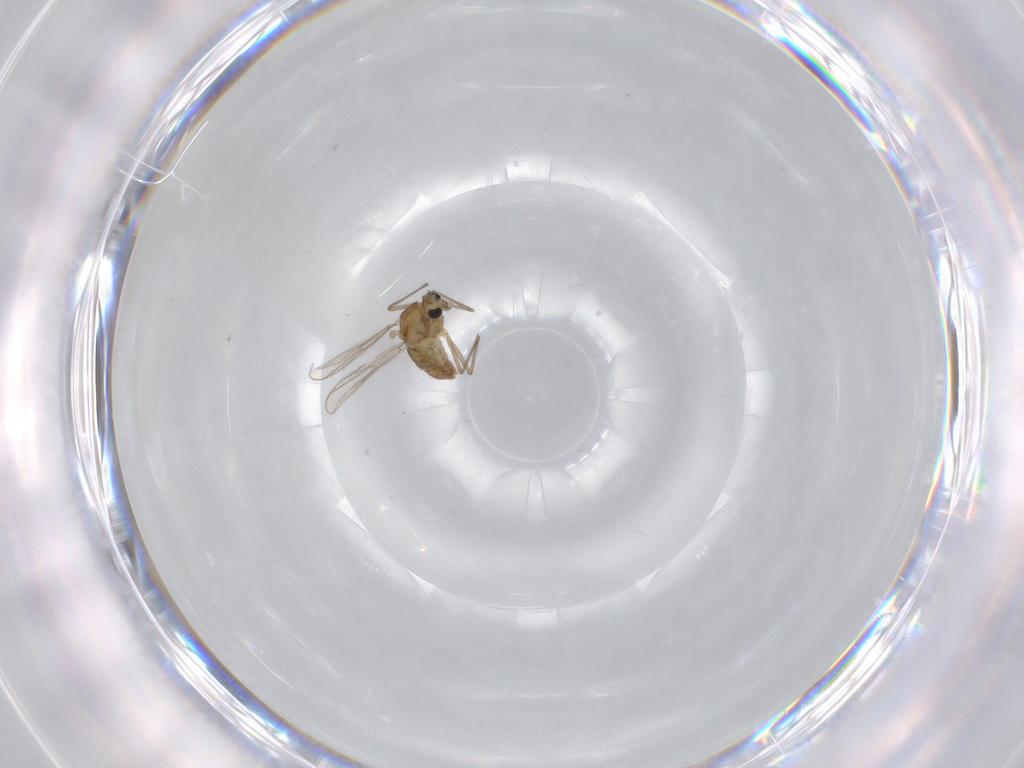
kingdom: Animalia
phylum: Arthropoda
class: Insecta
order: Diptera
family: Chironomidae
